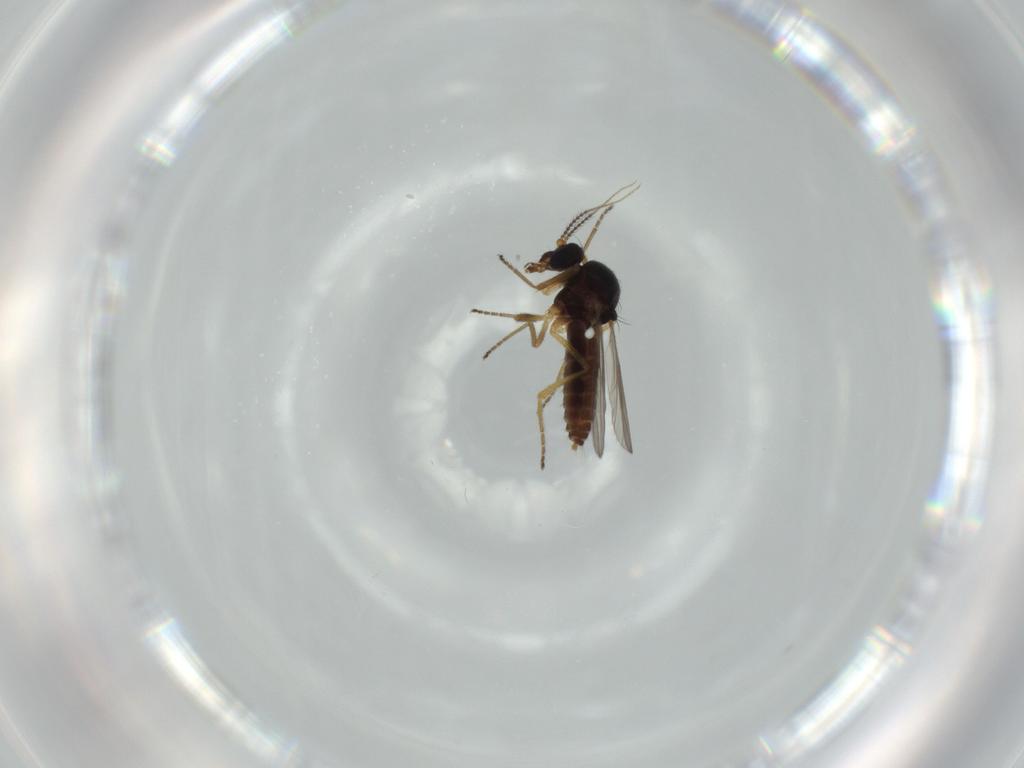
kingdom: Animalia
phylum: Arthropoda
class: Insecta
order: Diptera
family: Ceratopogonidae
